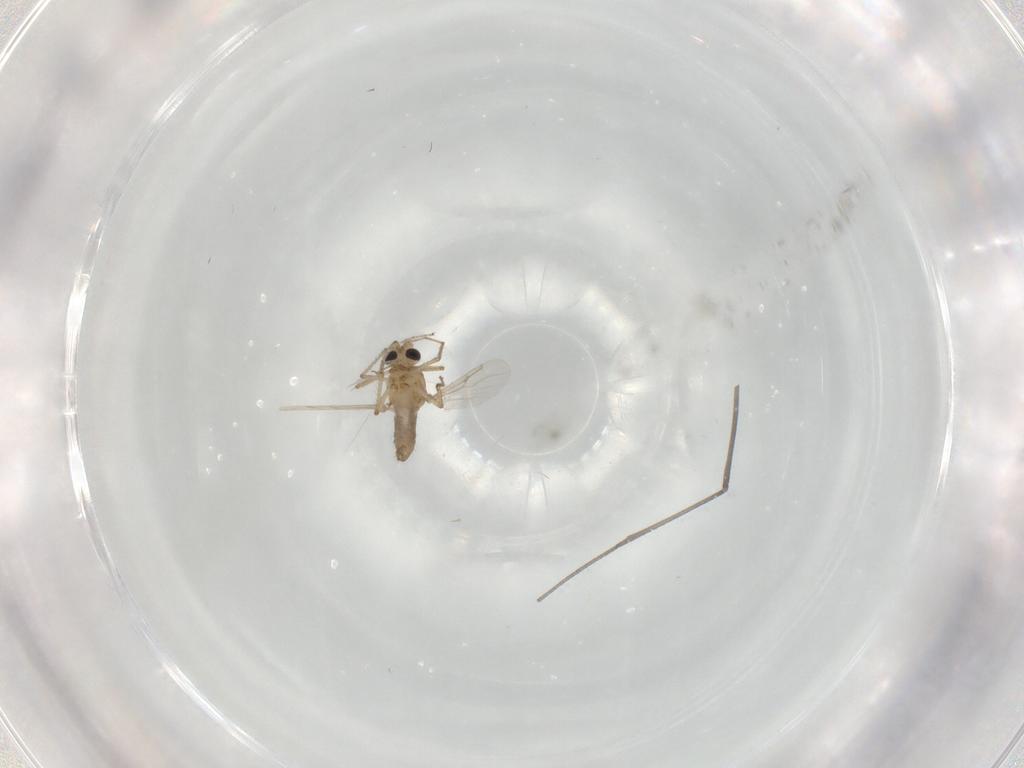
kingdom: Animalia
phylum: Arthropoda
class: Insecta
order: Diptera
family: Ceratopogonidae
